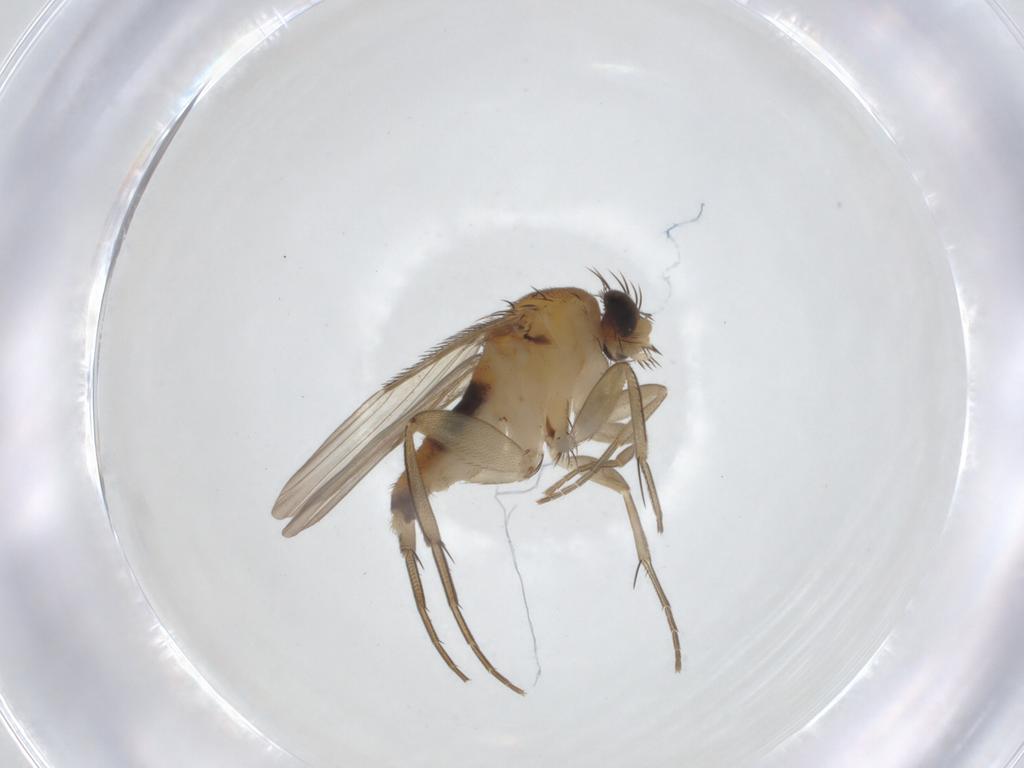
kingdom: Animalia
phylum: Arthropoda
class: Insecta
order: Diptera
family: Phoridae
